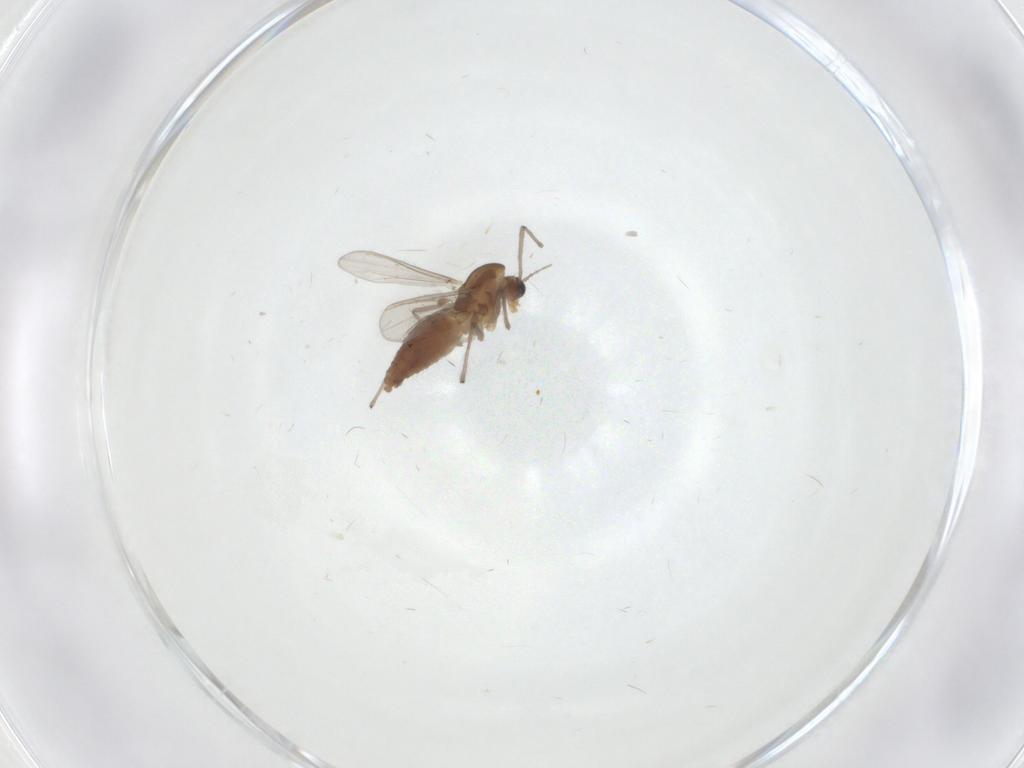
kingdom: Animalia
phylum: Arthropoda
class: Insecta
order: Diptera
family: Chironomidae
